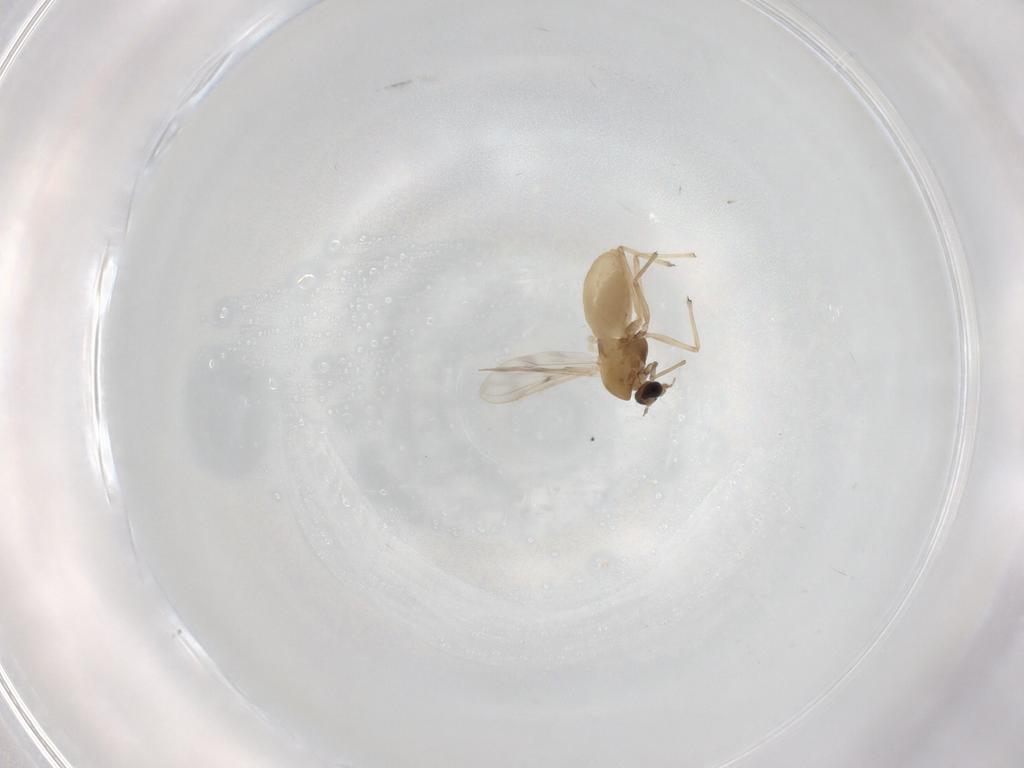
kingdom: Animalia
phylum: Arthropoda
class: Insecta
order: Diptera
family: Chironomidae
